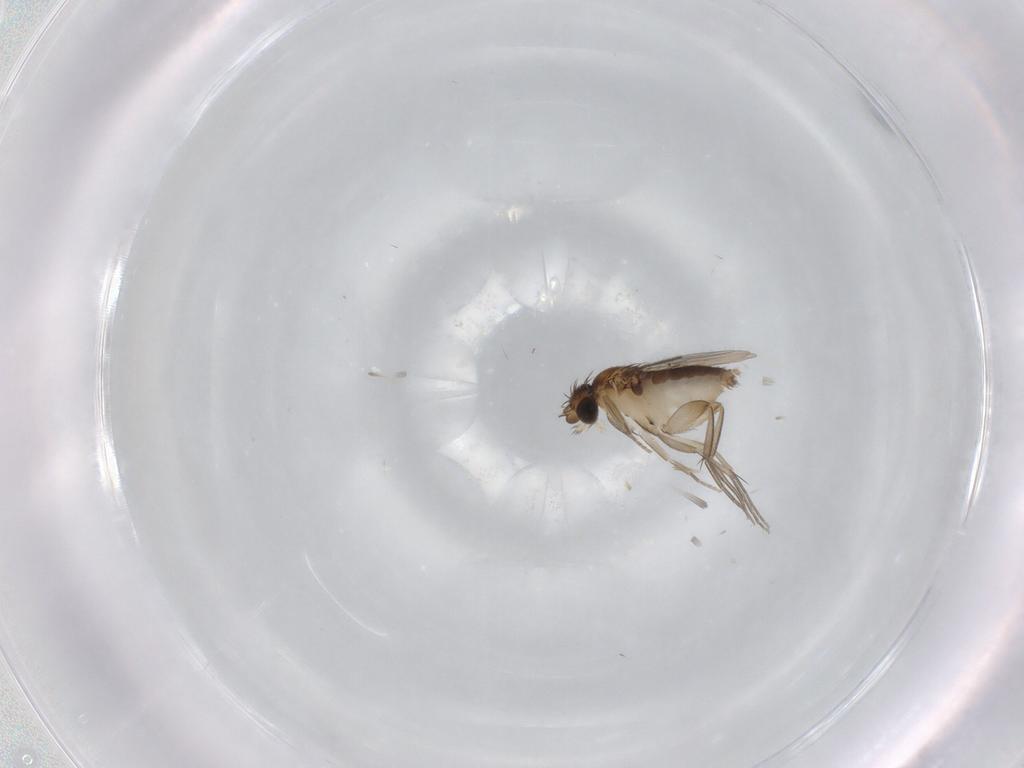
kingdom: Animalia
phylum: Arthropoda
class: Insecta
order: Diptera
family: Phoridae
